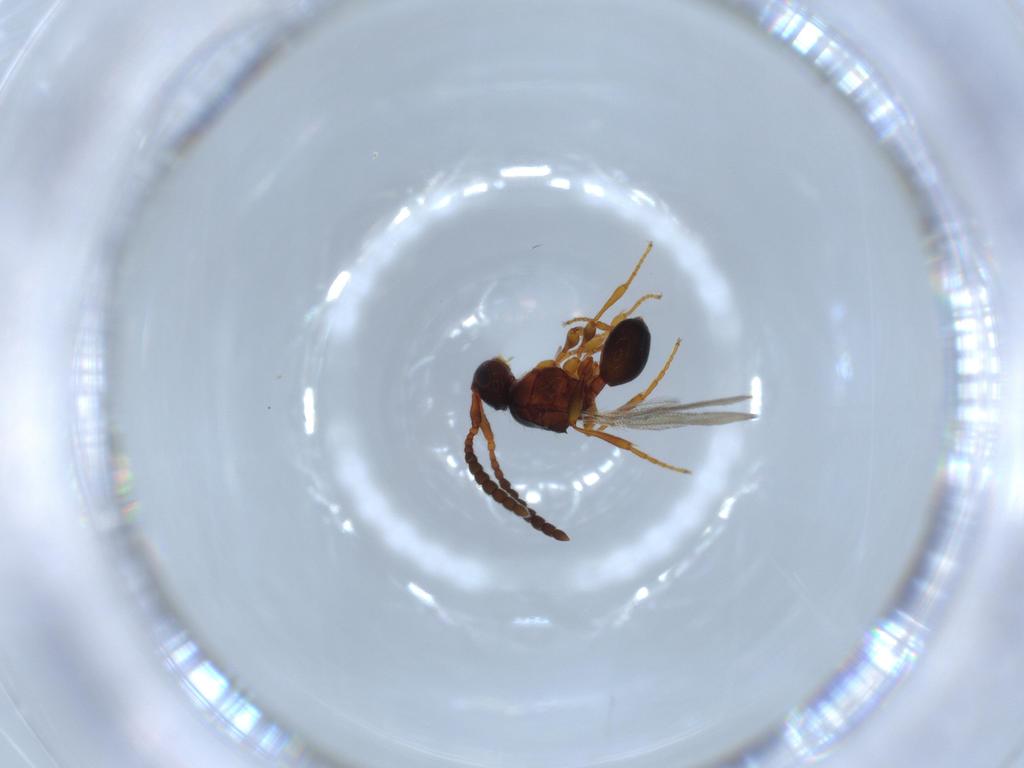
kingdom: Animalia
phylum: Arthropoda
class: Insecta
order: Hymenoptera
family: Diapriidae
